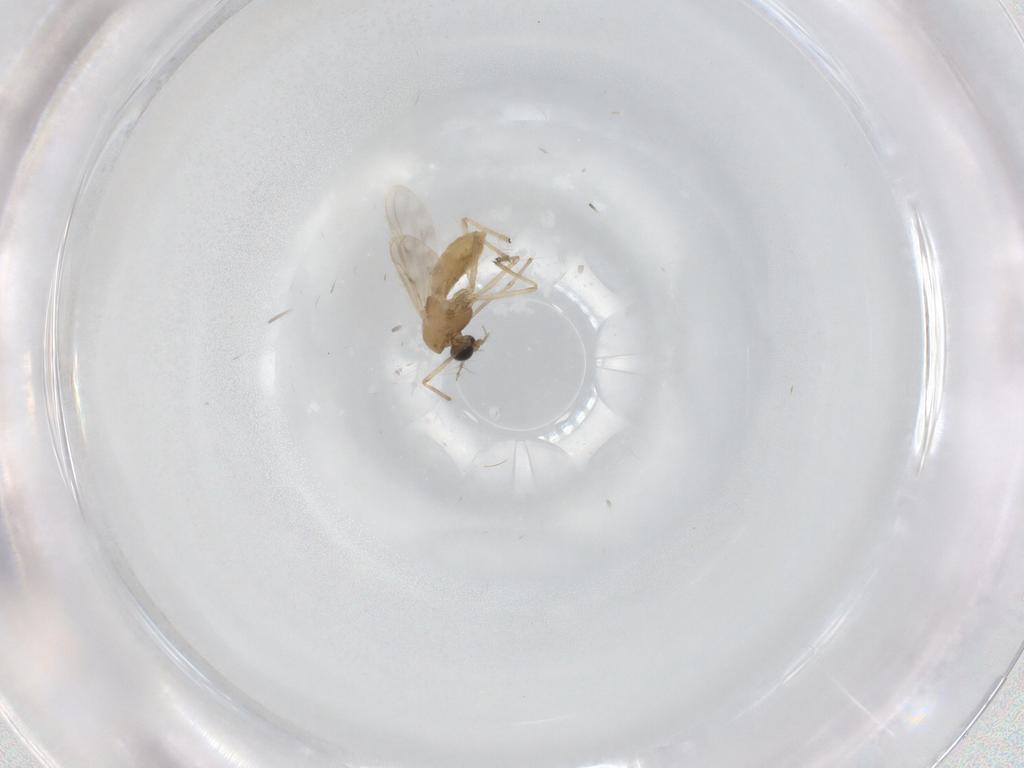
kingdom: Animalia
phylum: Arthropoda
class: Insecta
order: Diptera
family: Chironomidae
